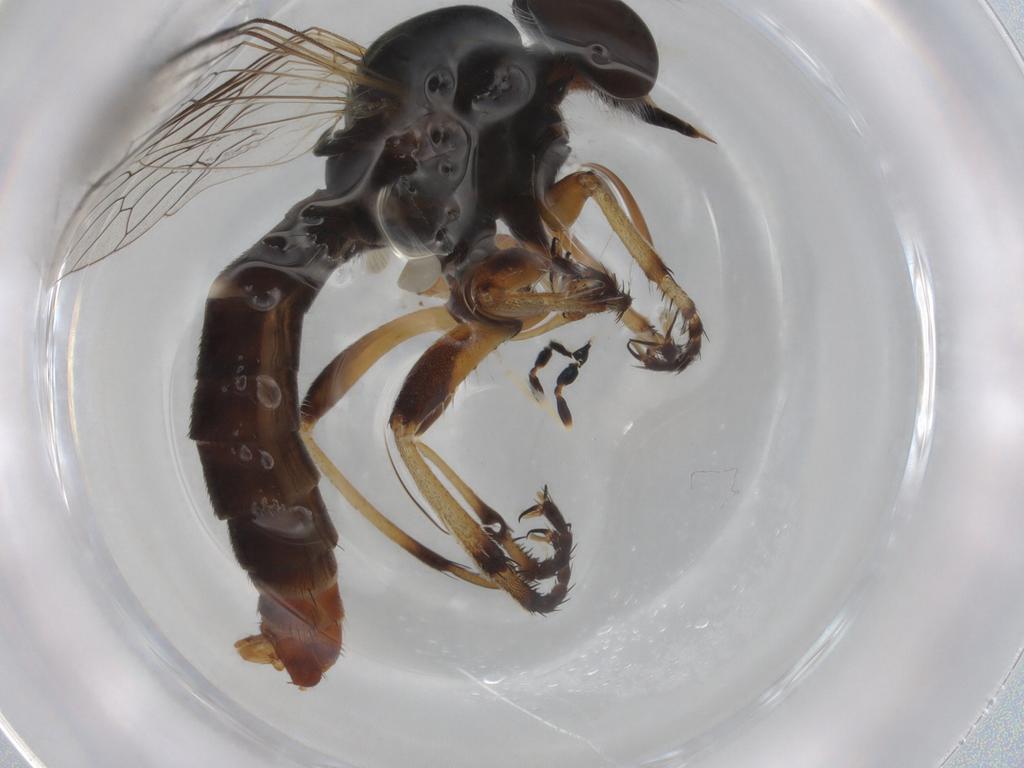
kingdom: Animalia
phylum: Arthropoda
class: Insecta
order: Diptera
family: Asilidae
